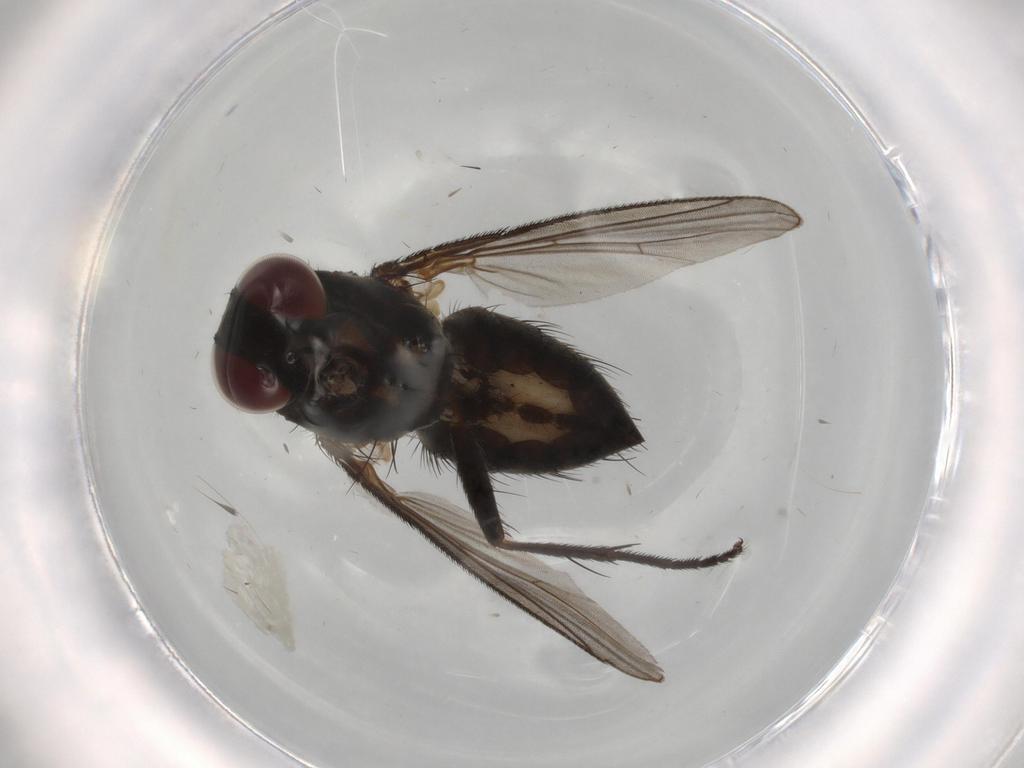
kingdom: Animalia
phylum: Arthropoda
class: Insecta
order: Diptera
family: Muscidae
